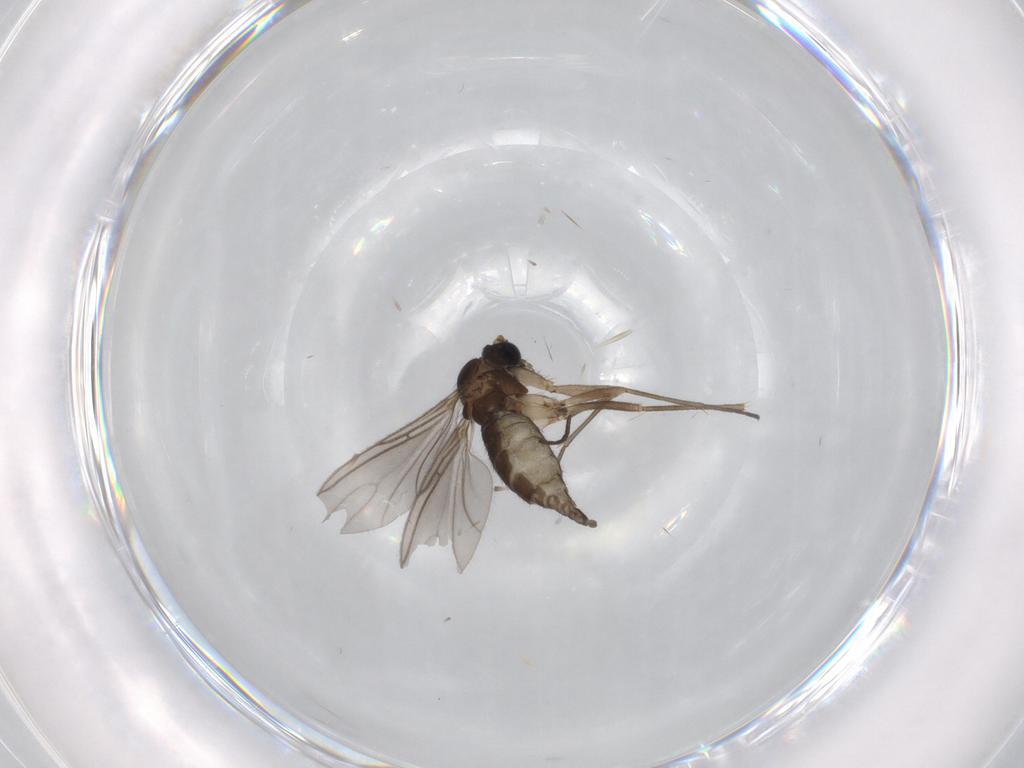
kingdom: Animalia
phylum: Arthropoda
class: Insecta
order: Diptera
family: Sciaridae
